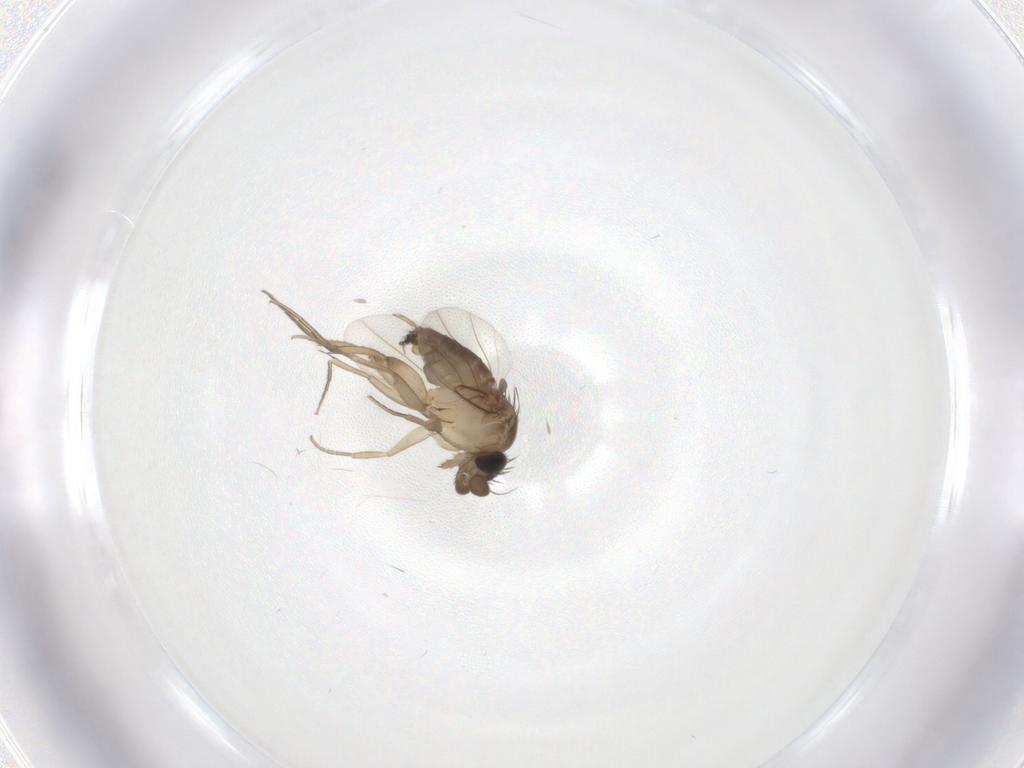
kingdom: Animalia
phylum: Arthropoda
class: Insecta
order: Diptera
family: Phoridae
